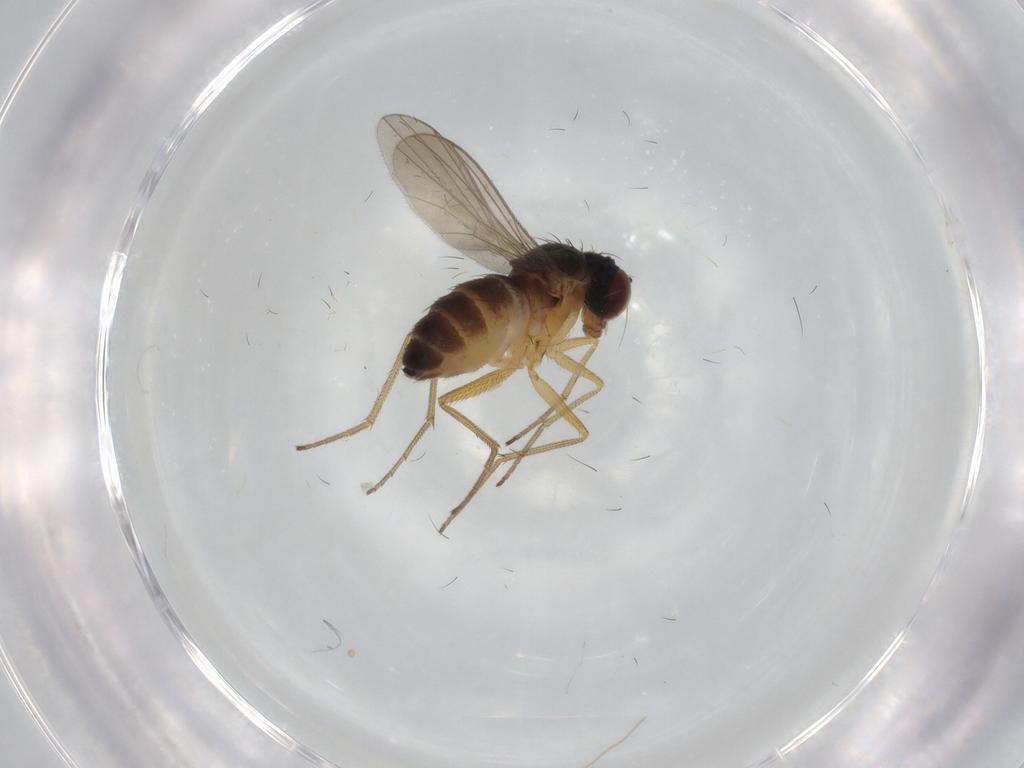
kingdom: Animalia
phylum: Arthropoda
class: Insecta
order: Diptera
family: Dolichopodidae
